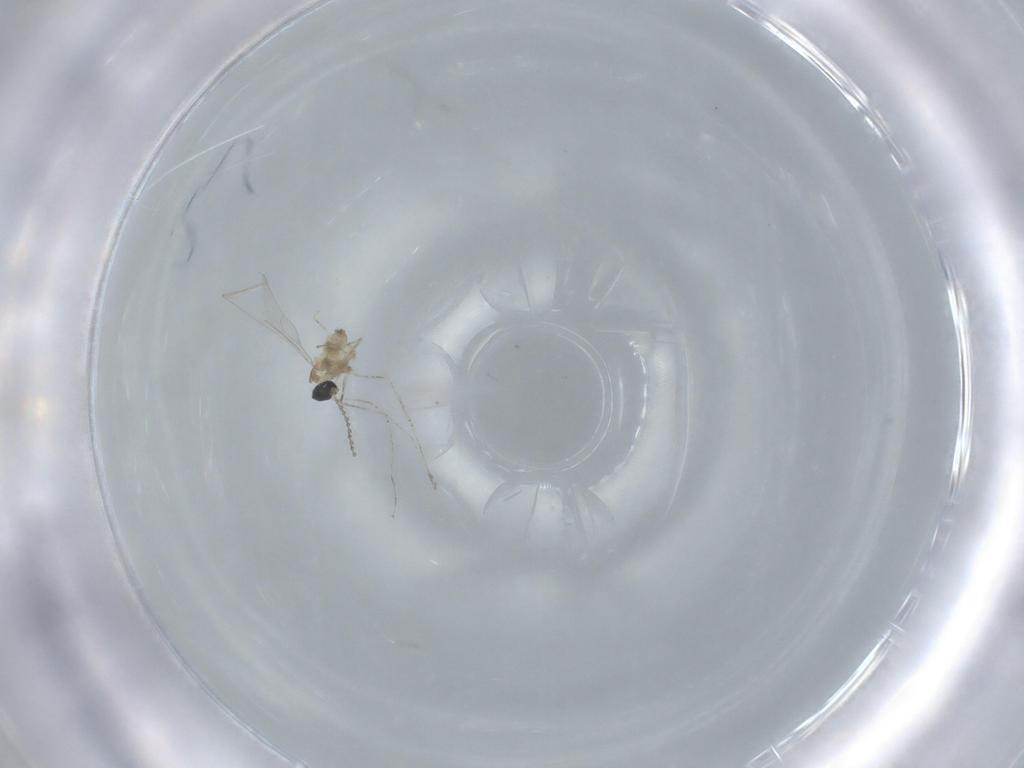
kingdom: Animalia
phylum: Arthropoda
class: Insecta
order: Diptera
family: Cecidomyiidae
